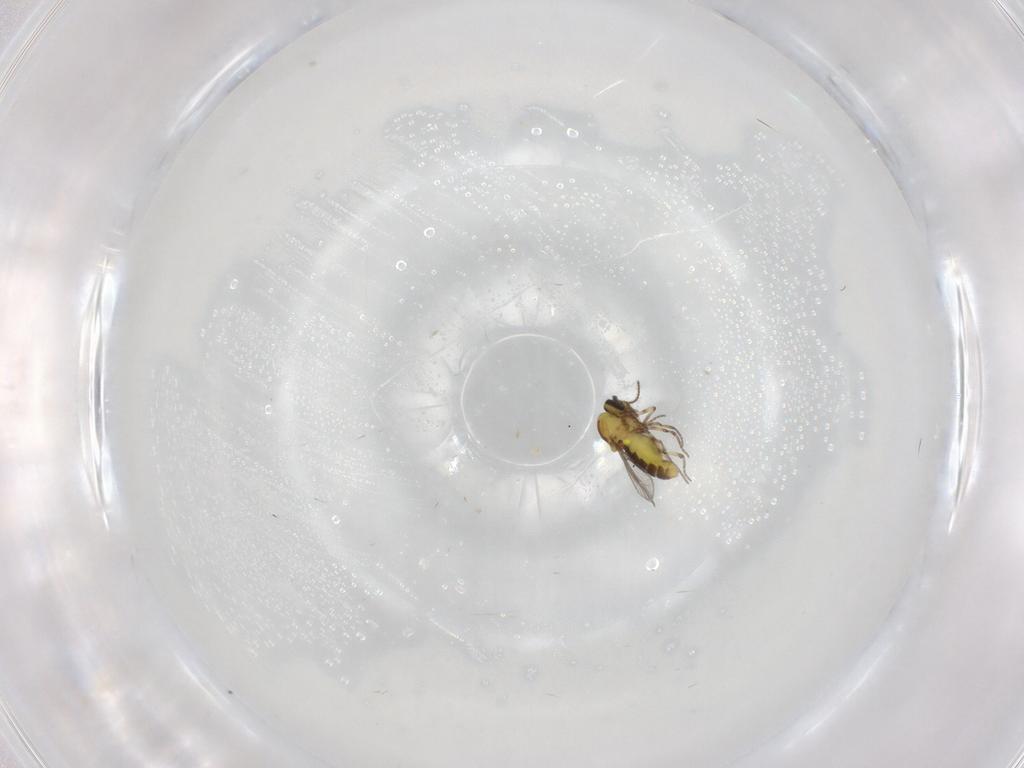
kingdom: Animalia
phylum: Arthropoda
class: Insecta
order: Diptera
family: Ceratopogonidae
